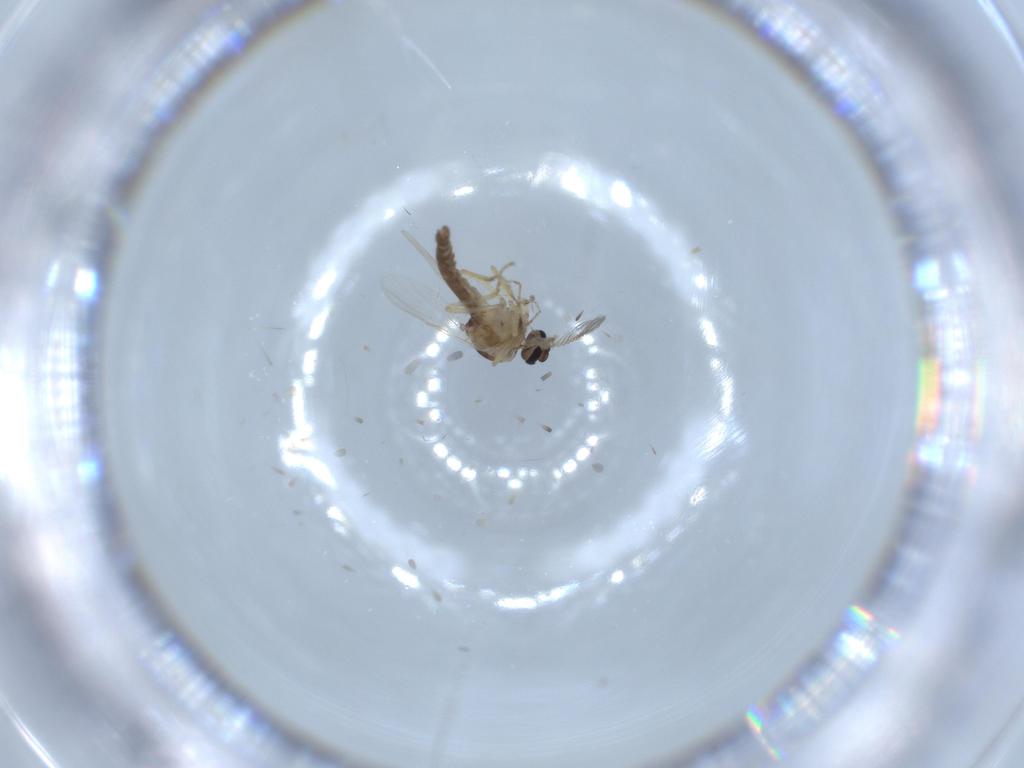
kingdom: Animalia
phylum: Arthropoda
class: Insecta
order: Diptera
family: Ceratopogonidae
